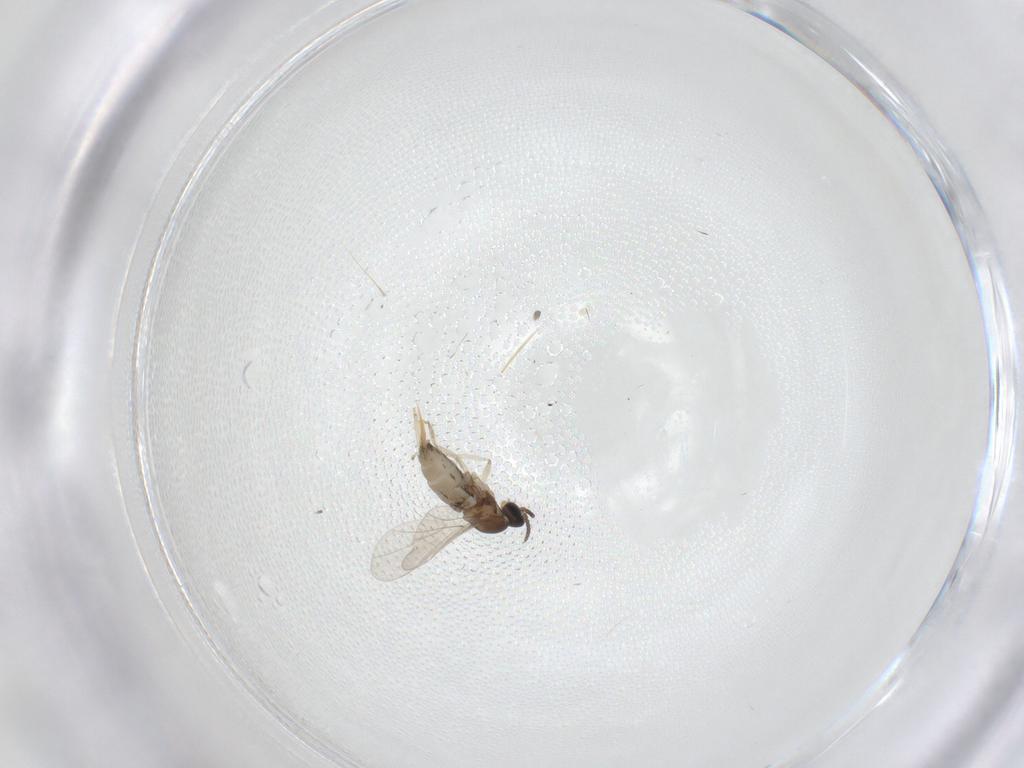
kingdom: Animalia
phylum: Arthropoda
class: Insecta
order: Diptera
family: Cecidomyiidae
